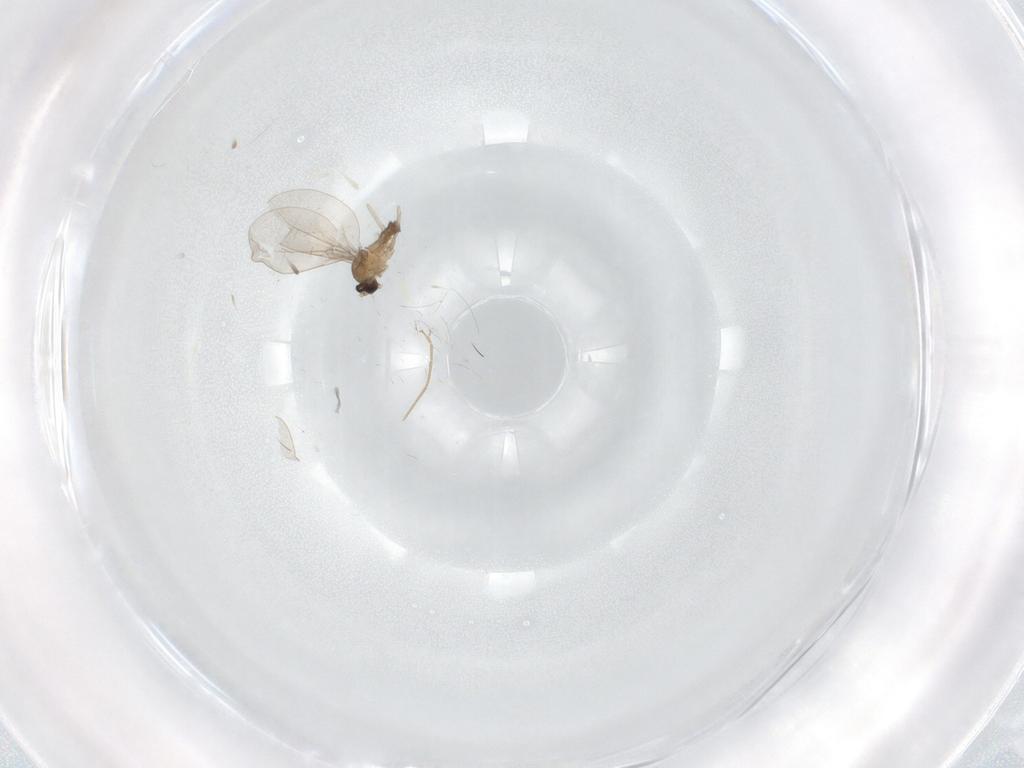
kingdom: Animalia
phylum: Arthropoda
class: Insecta
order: Diptera
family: Cecidomyiidae
